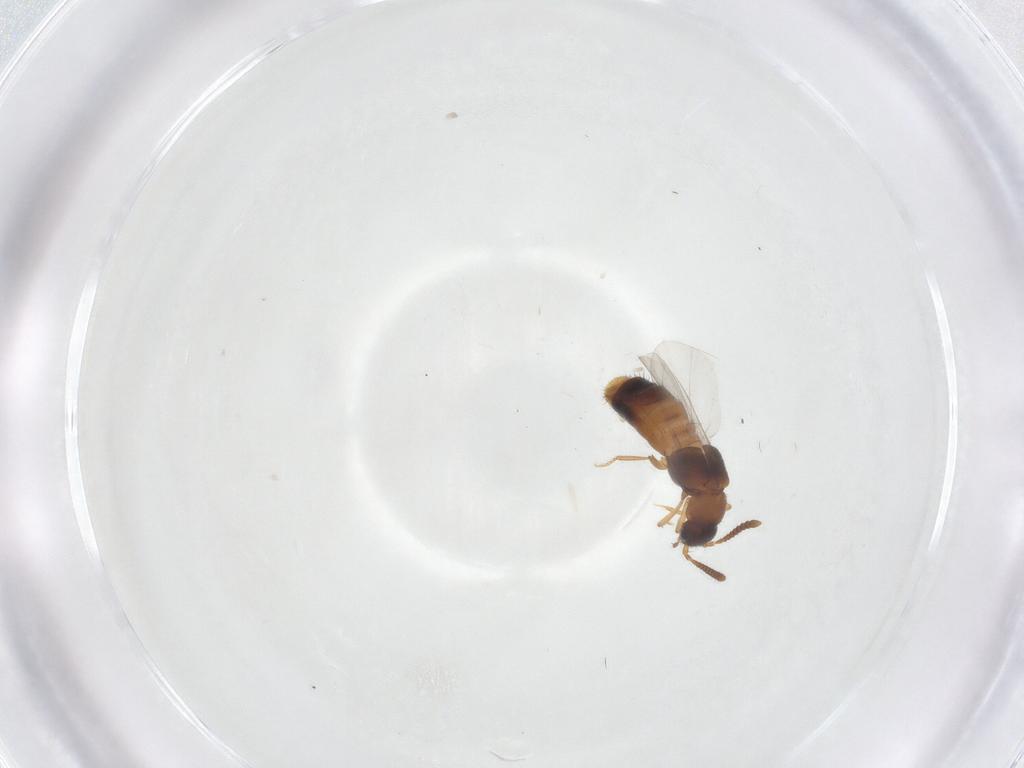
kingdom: Animalia
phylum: Arthropoda
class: Insecta
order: Coleoptera
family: Staphylinidae
